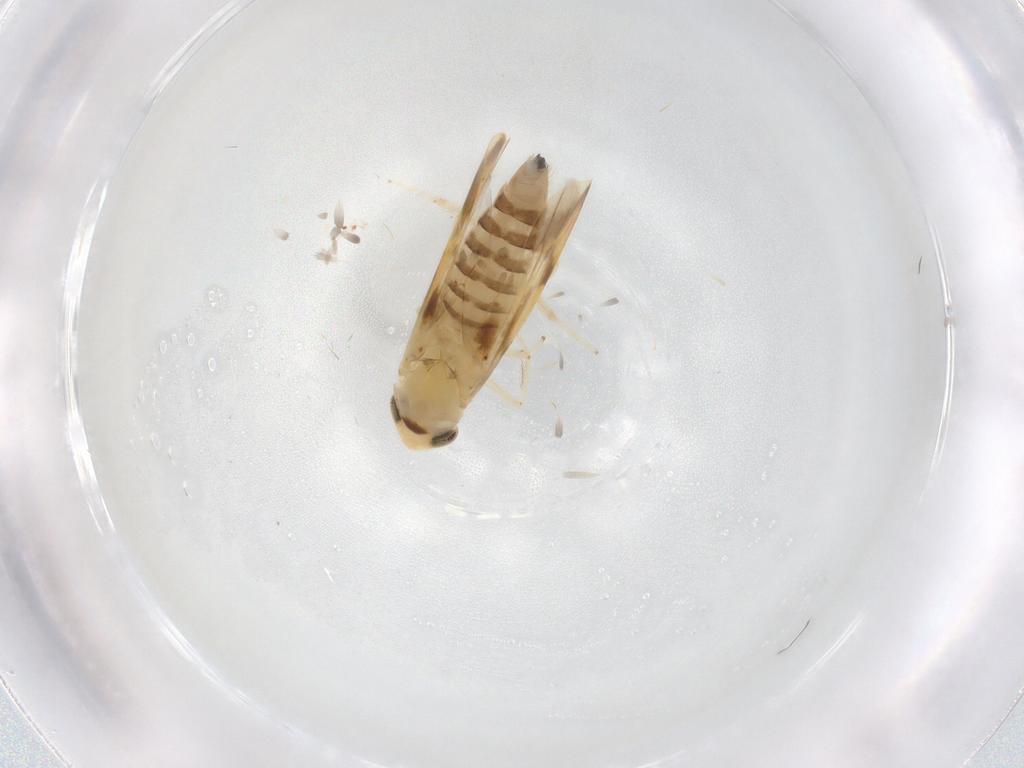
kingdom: Animalia
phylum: Arthropoda
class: Insecta
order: Hemiptera
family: Cicadellidae
